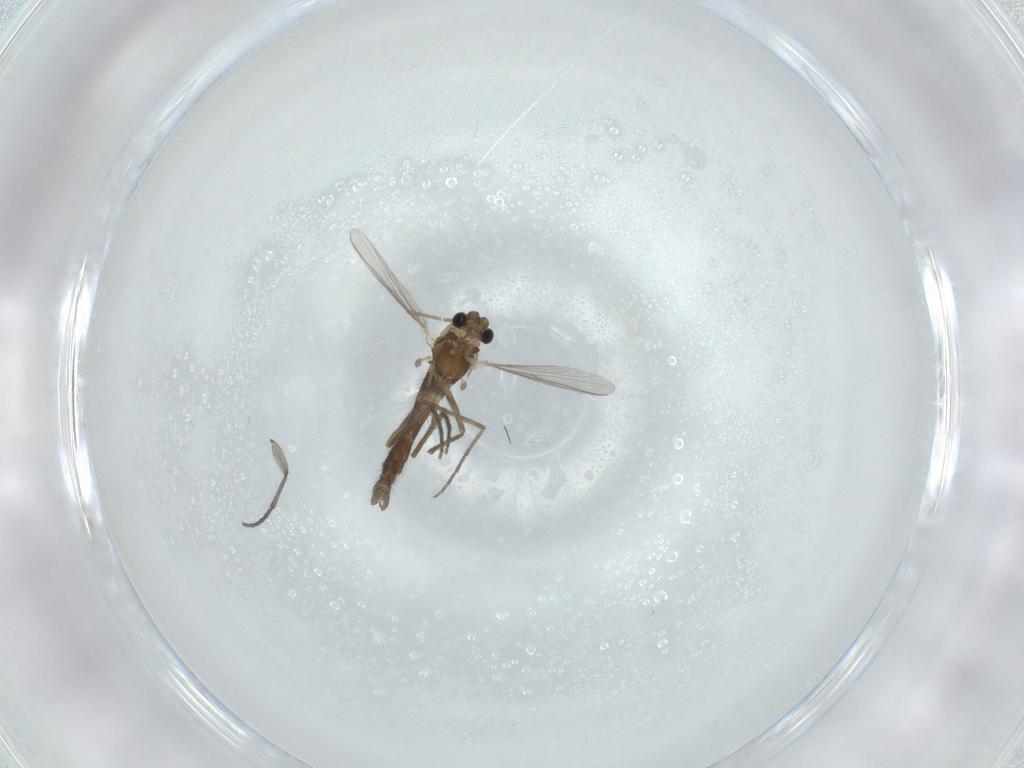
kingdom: Animalia
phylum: Arthropoda
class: Insecta
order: Diptera
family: Chironomidae
